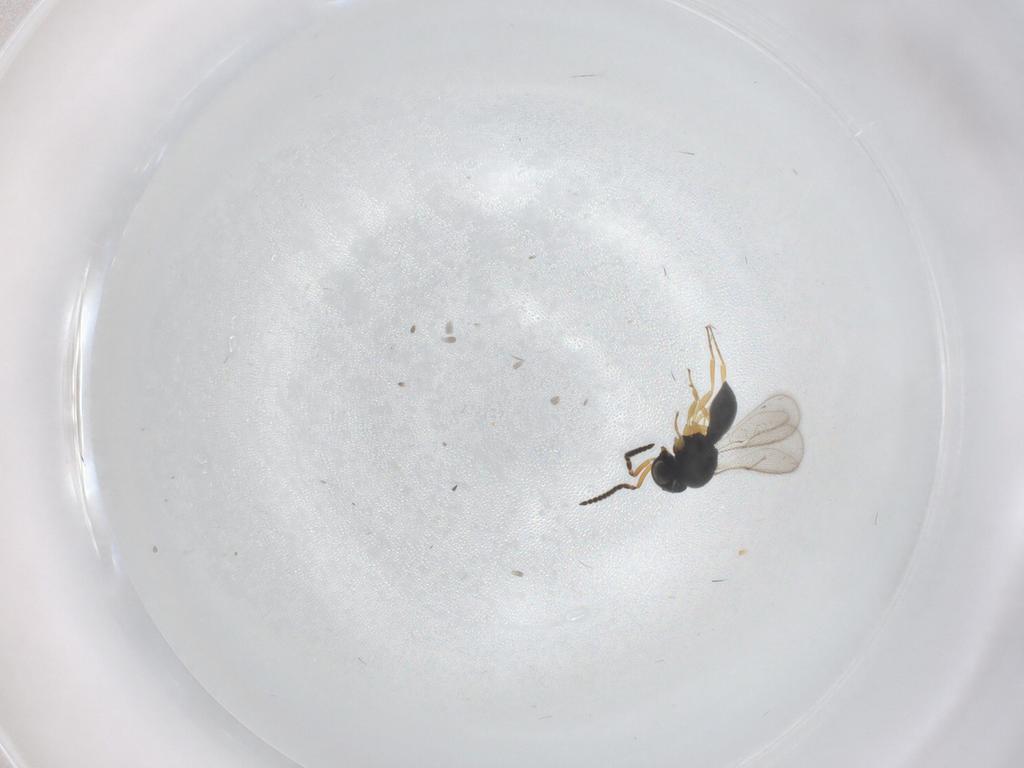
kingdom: Animalia
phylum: Arthropoda
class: Insecta
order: Hymenoptera
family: Scelionidae
